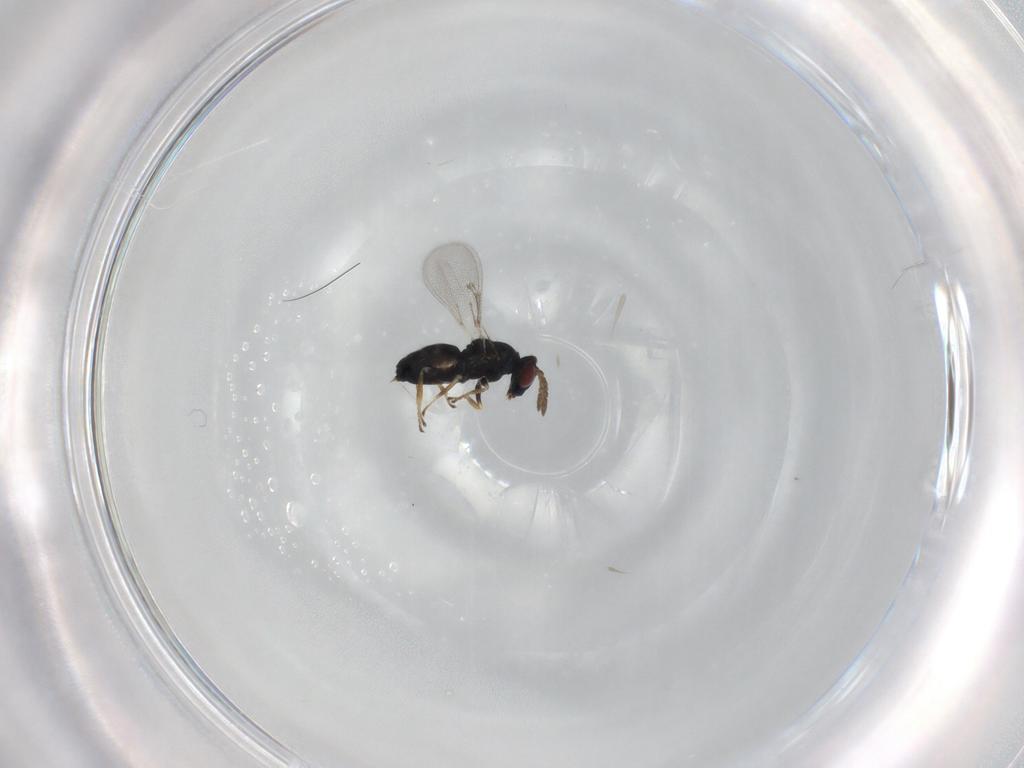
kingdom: Animalia
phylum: Arthropoda
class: Insecta
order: Hymenoptera
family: Eulophidae
